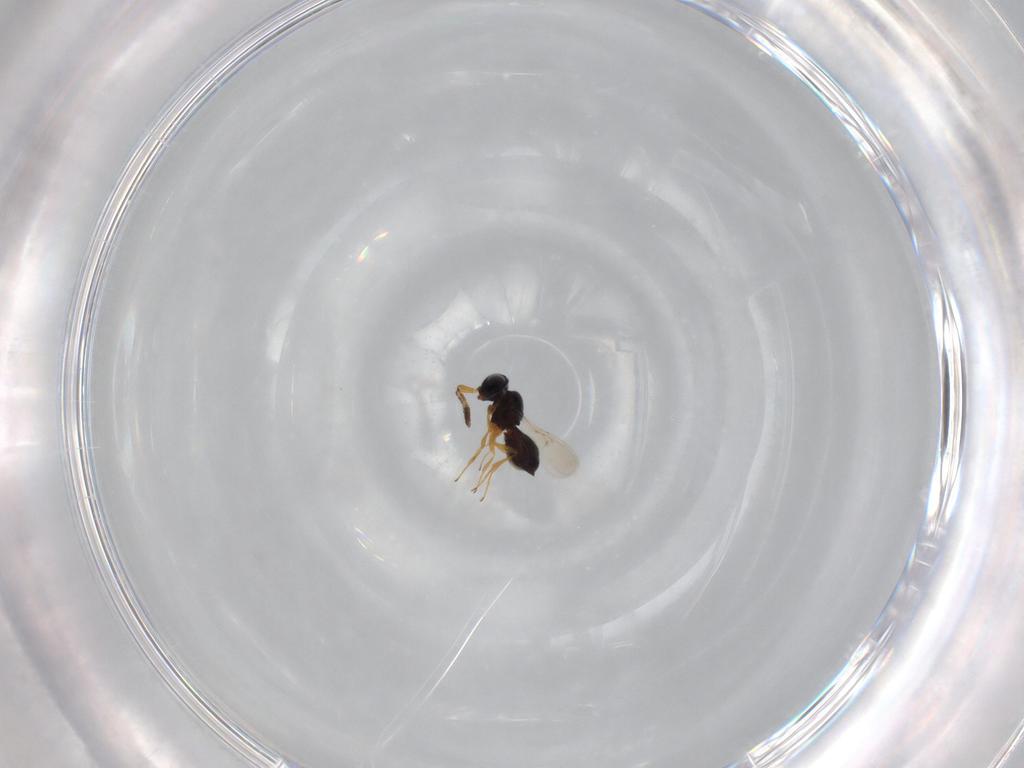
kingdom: Animalia
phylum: Arthropoda
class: Insecta
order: Hymenoptera
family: Scelionidae
